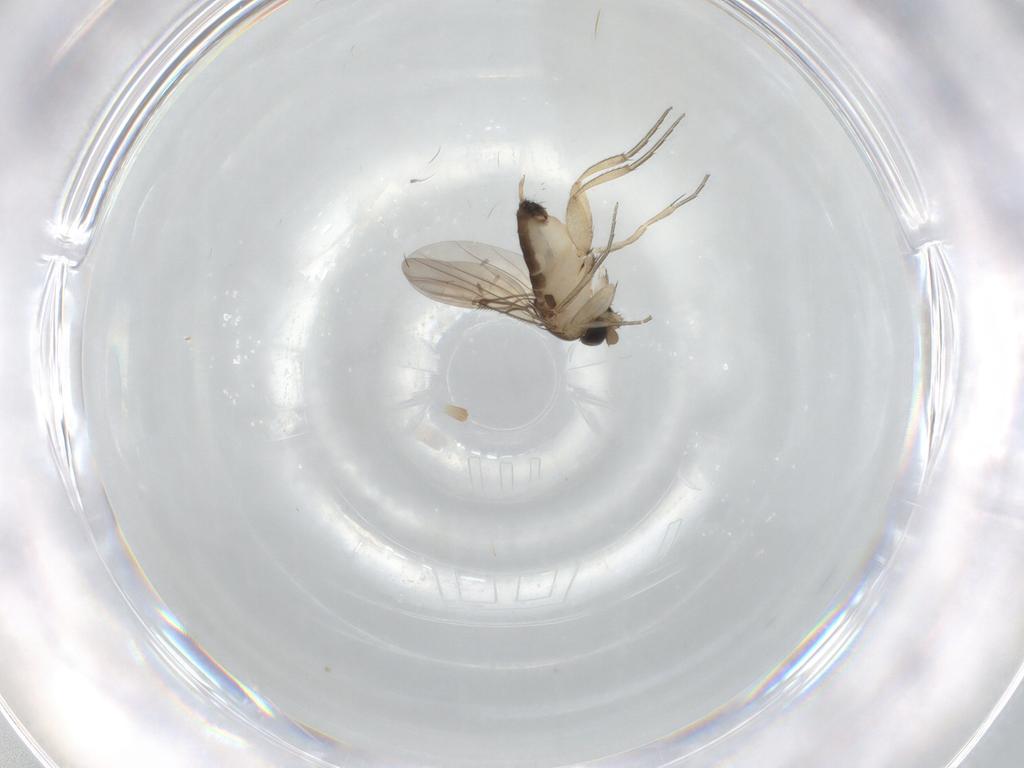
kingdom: Animalia
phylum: Arthropoda
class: Insecta
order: Diptera
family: Phoridae
